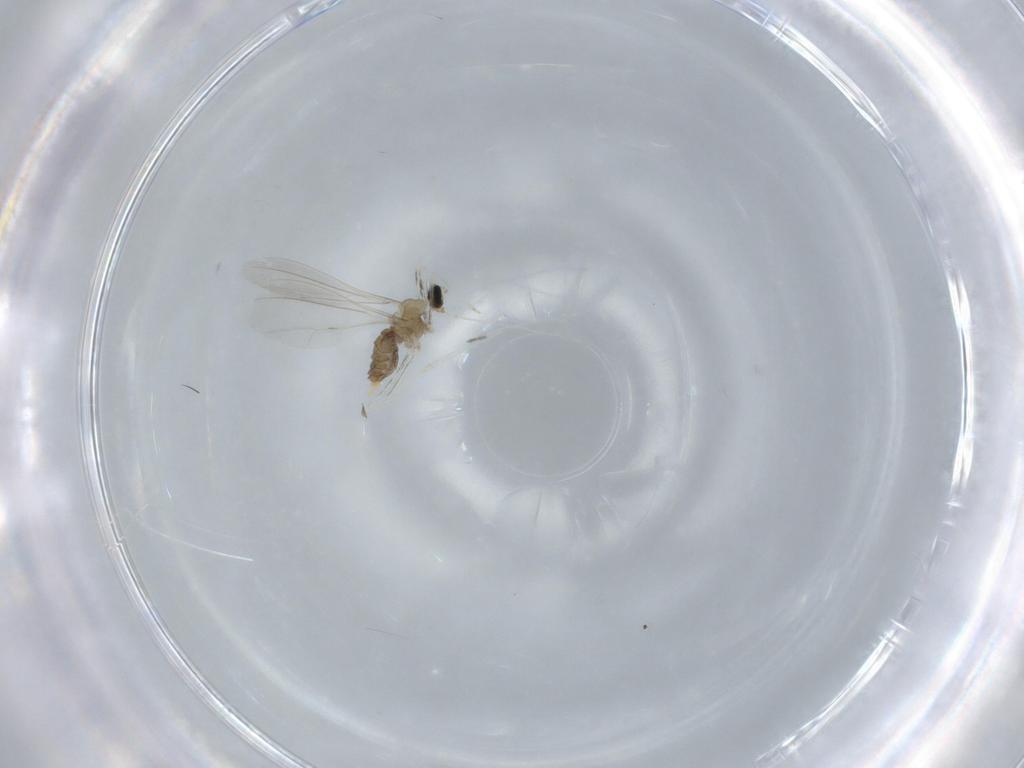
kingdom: Animalia
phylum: Arthropoda
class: Insecta
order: Diptera
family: Cecidomyiidae
